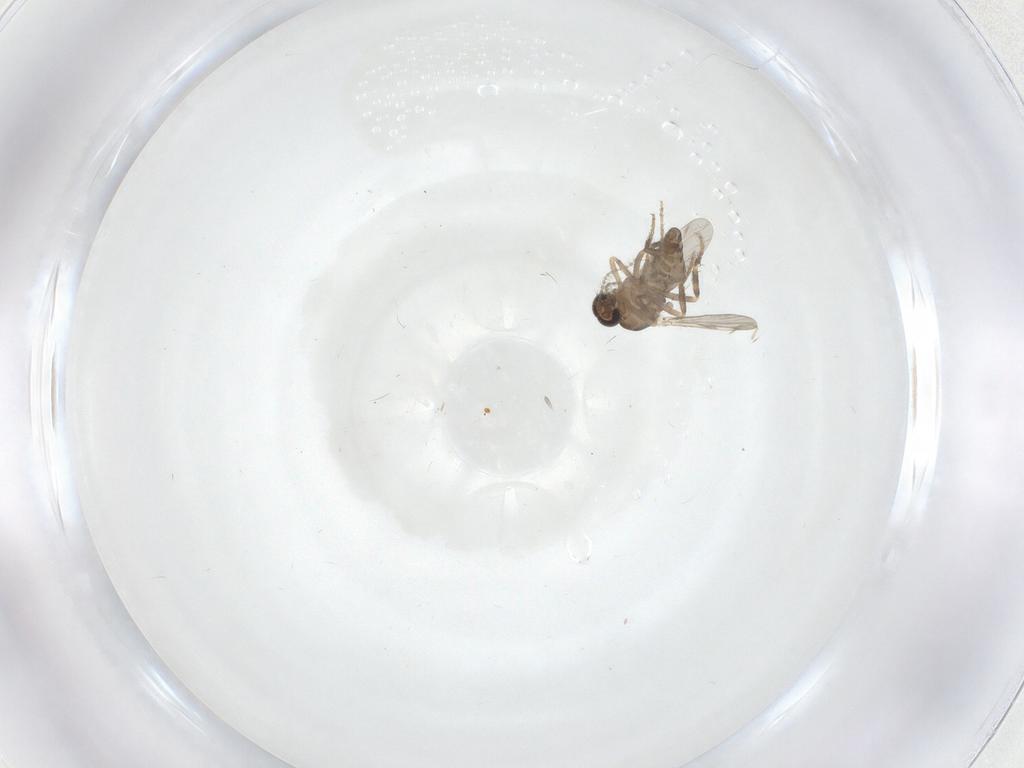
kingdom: Animalia
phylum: Arthropoda
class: Insecta
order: Diptera
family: Ceratopogonidae
